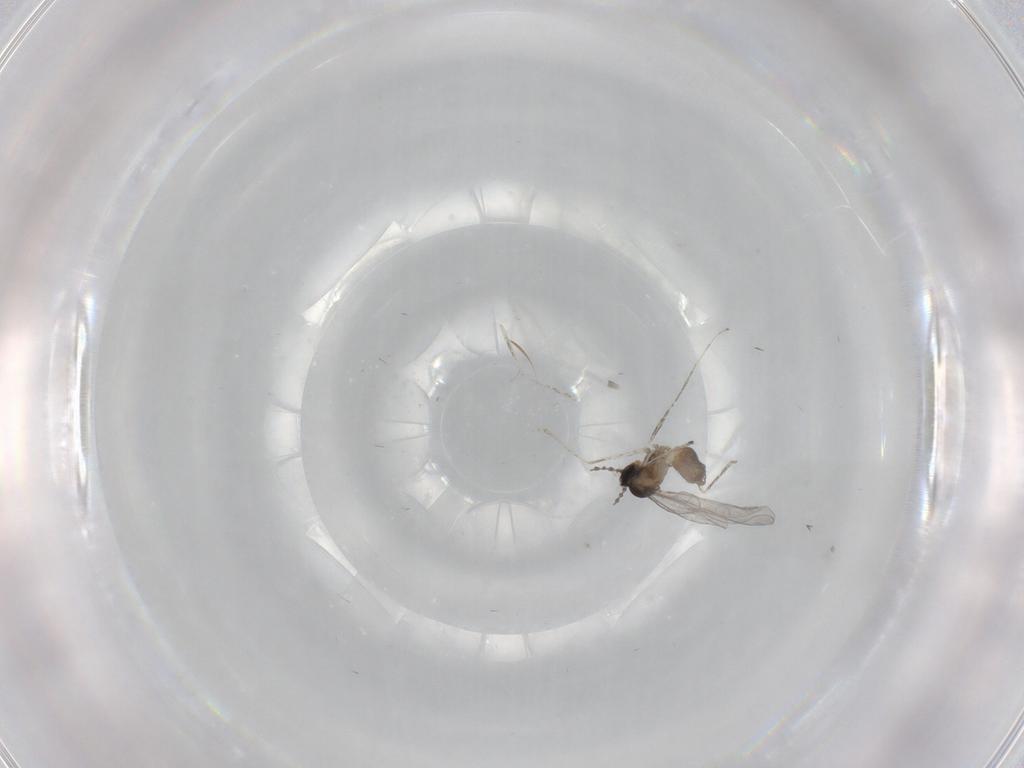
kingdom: Animalia
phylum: Arthropoda
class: Insecta
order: Diptera
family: Cecidomyiidae
